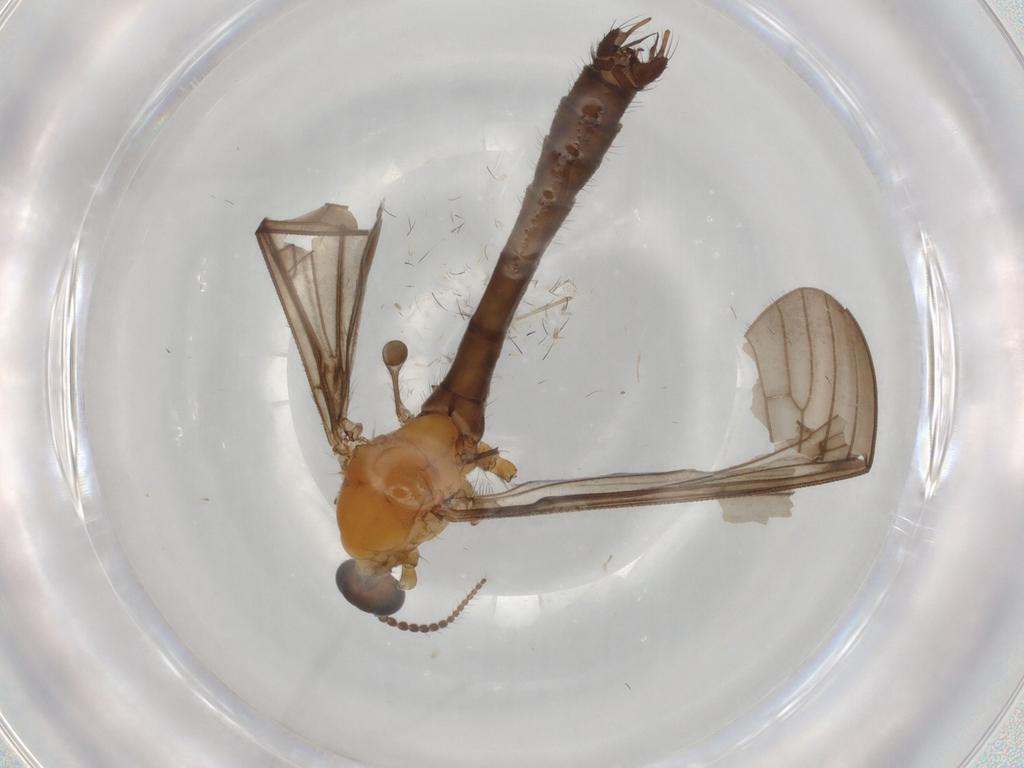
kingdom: Animalia
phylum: Arthropoda
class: Insecta
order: Diptera
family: Limoniidae
